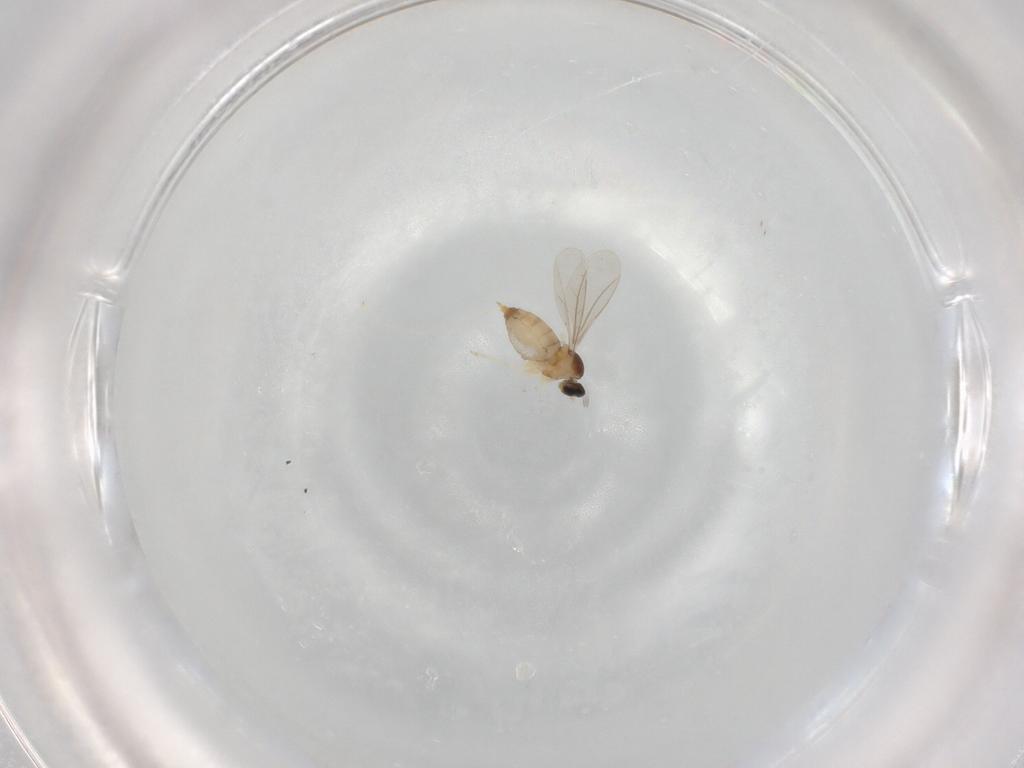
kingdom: Animalia
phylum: Arthropoda
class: Insecta
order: Diptera
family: Cecidomyiidae
